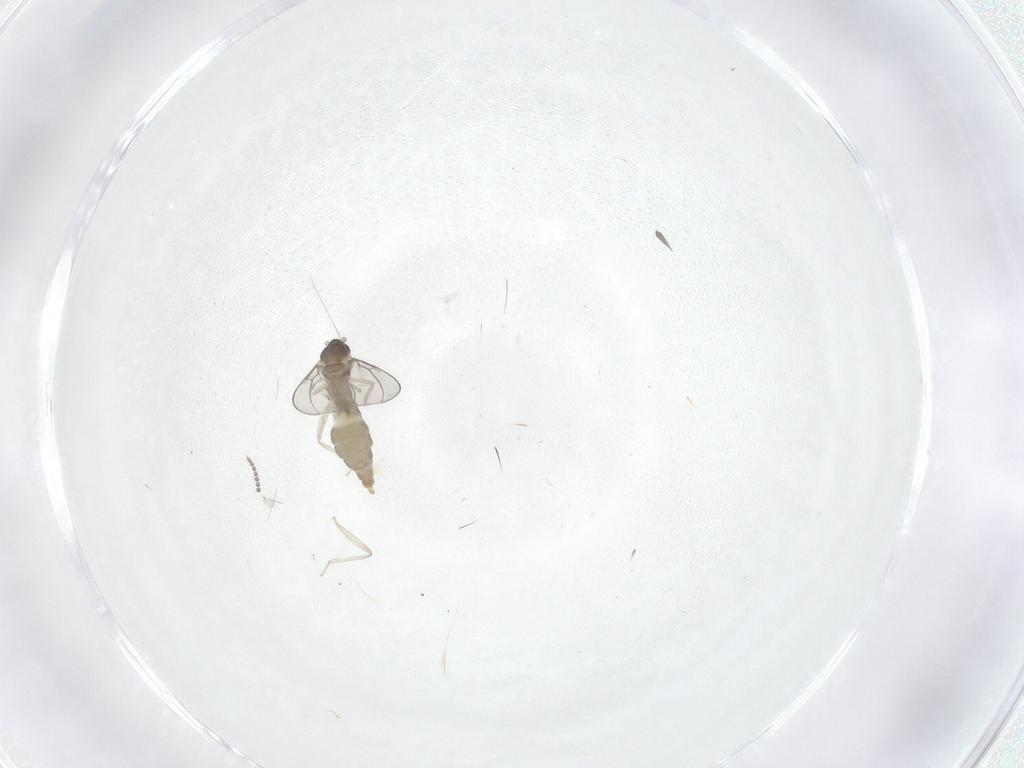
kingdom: Animalia
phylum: Arthropoda
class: Insecta
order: Diptera
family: Cecidomyiidae
